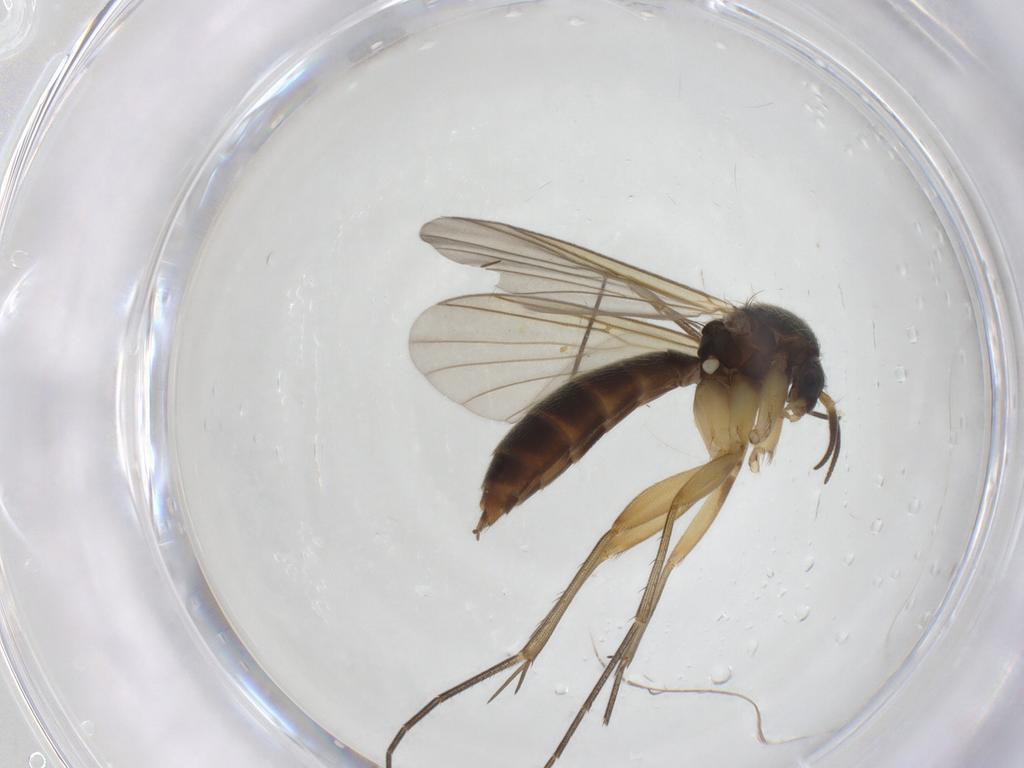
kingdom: Animalia
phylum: Arthropoda
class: Insecta
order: Diptera
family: Mycetophilidae
